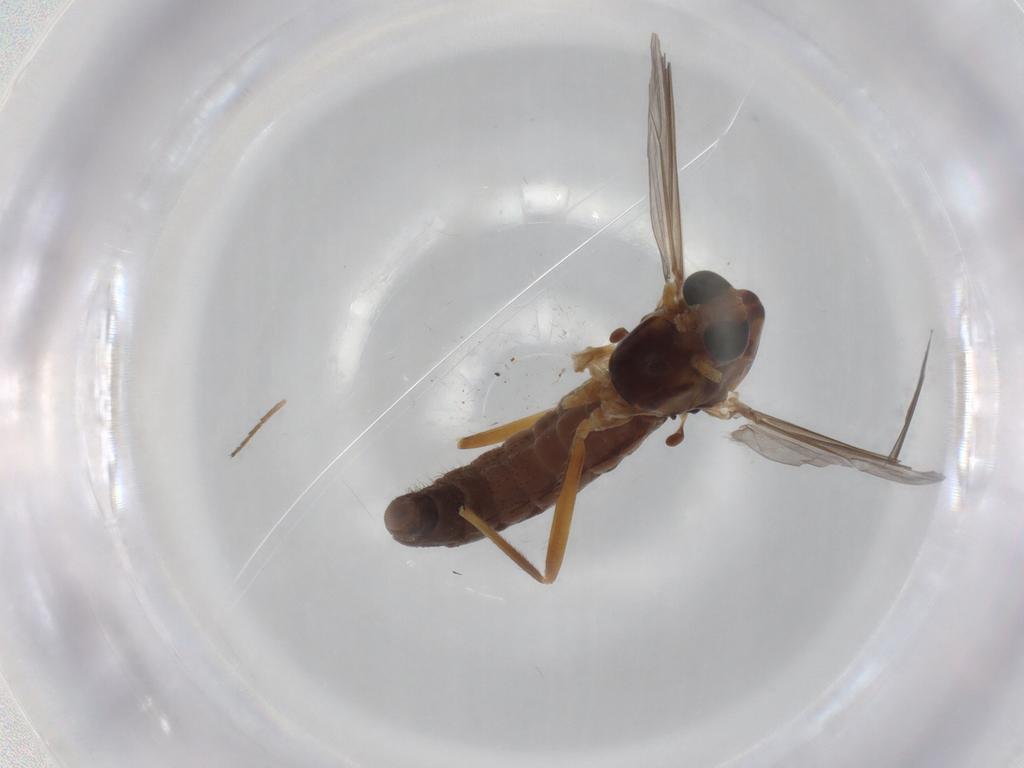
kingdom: Animalia
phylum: Arthropoda
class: Insecta
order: Diptera
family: Muscidae
